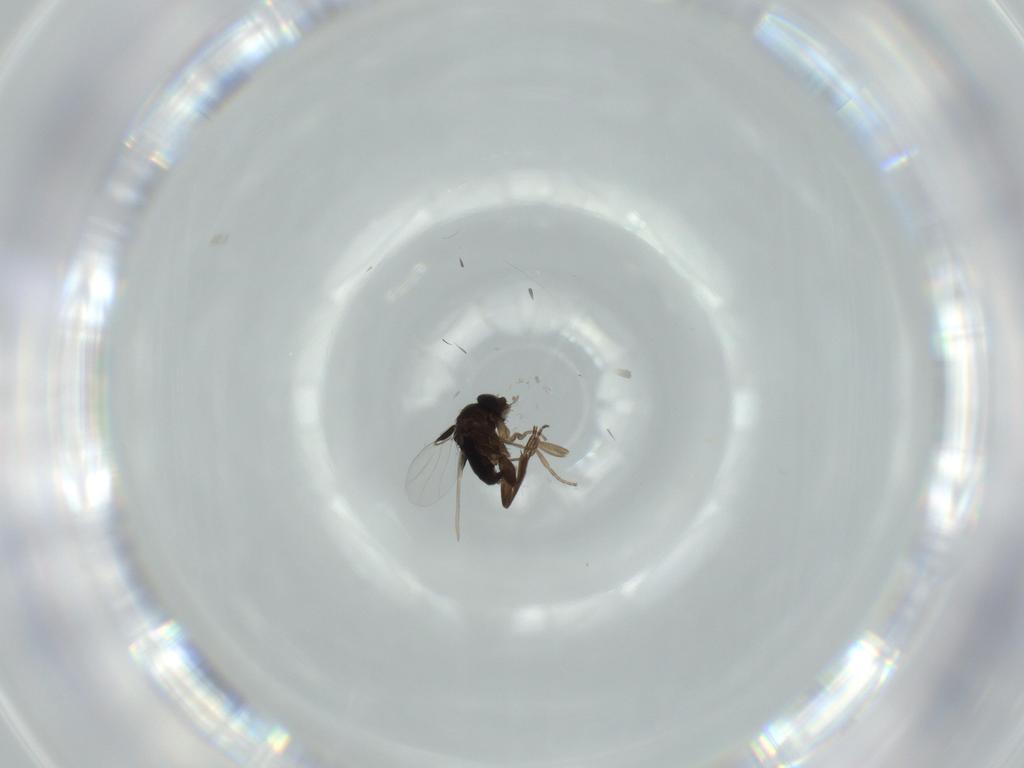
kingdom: Animalia
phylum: Arthropoda
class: Insecta
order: Diptera
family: Phoridae
